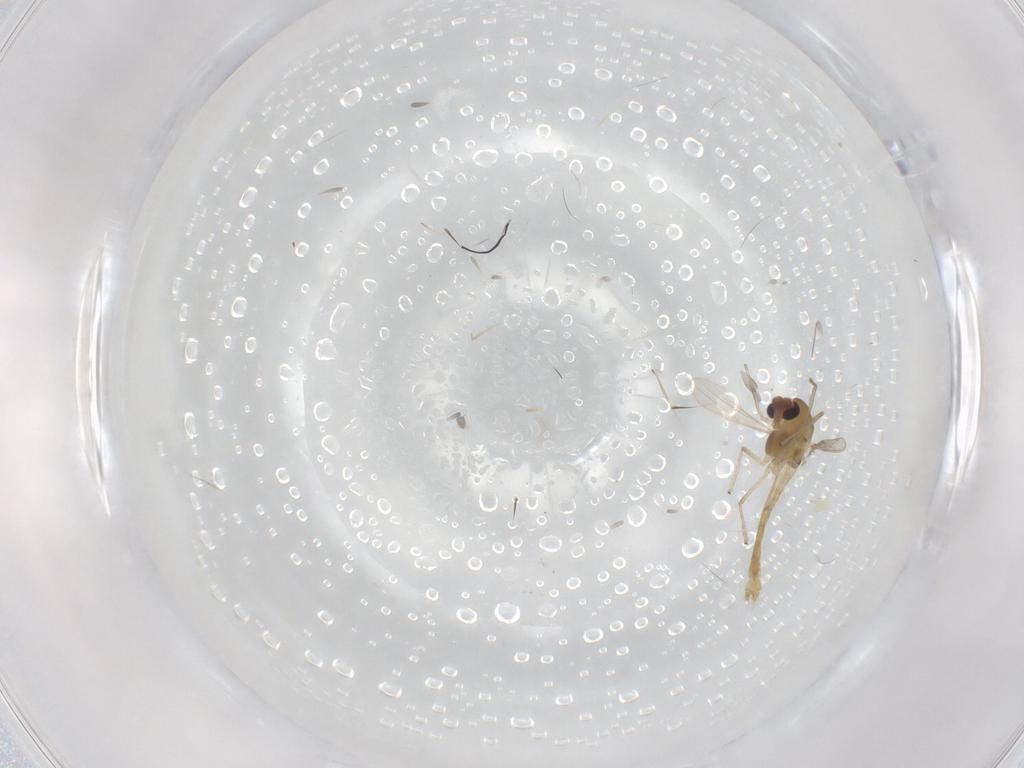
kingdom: Animalia
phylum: Arthropoda
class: Insecta
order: Diptera
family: Chironomidae
